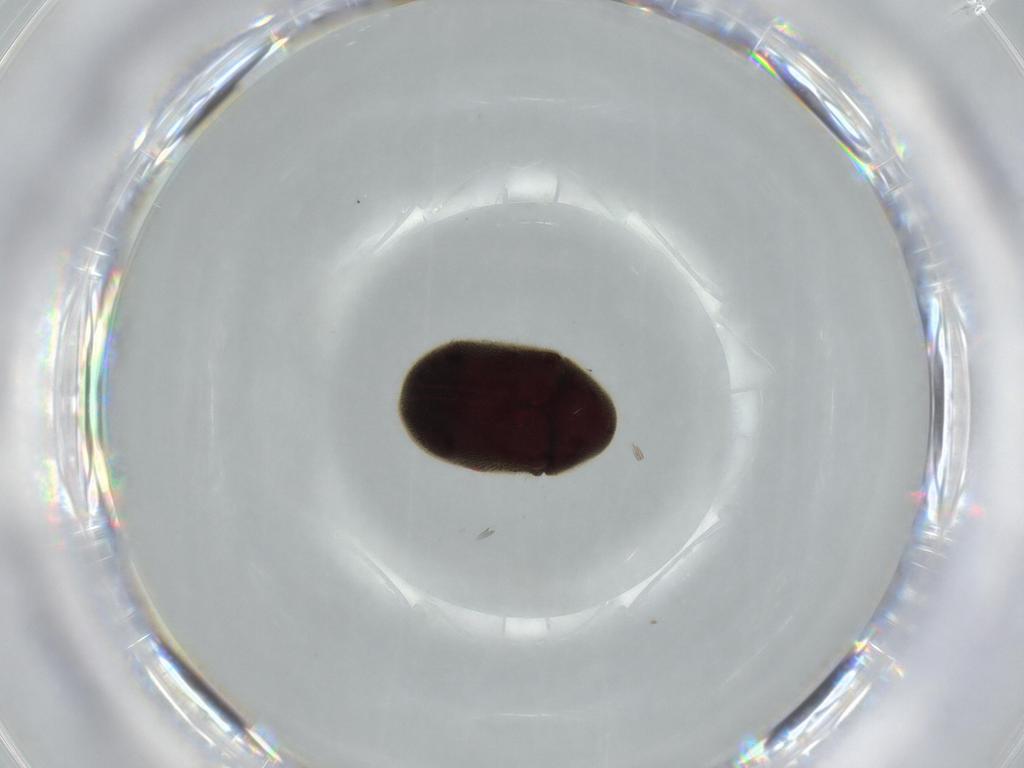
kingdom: Animalia
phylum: Arthropoda
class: Insecta
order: Coleoptera
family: Ptinidae
